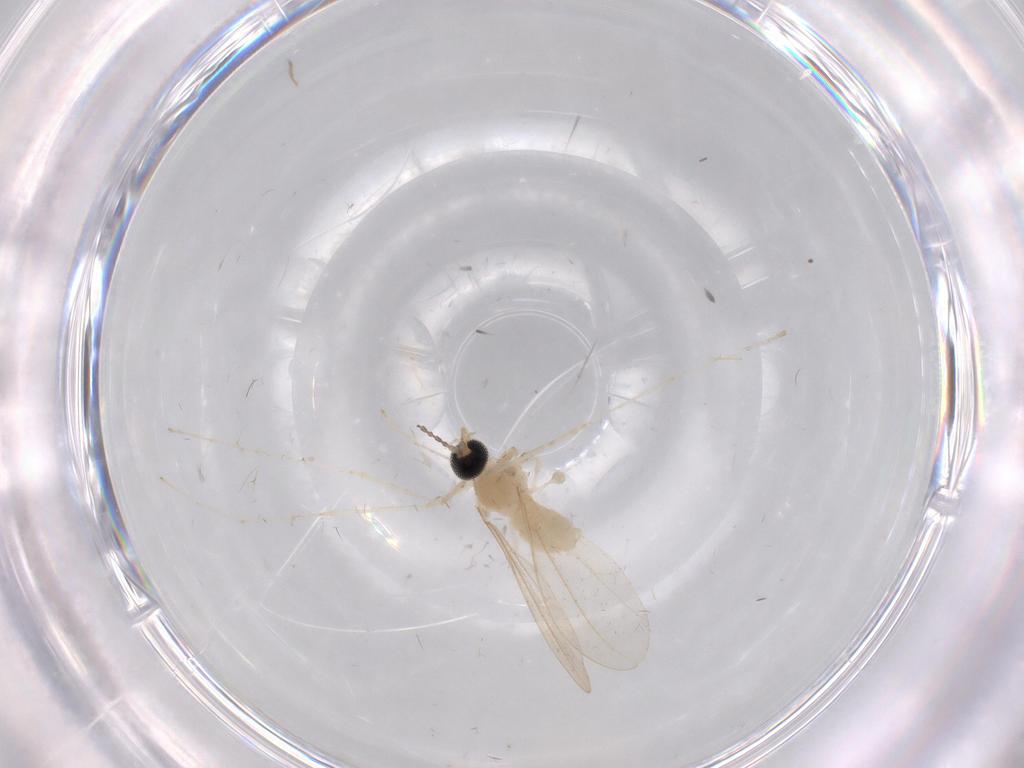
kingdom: Animalia
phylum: Arthropoda
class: Insecta
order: Diptera
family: Cecidomyiidae
